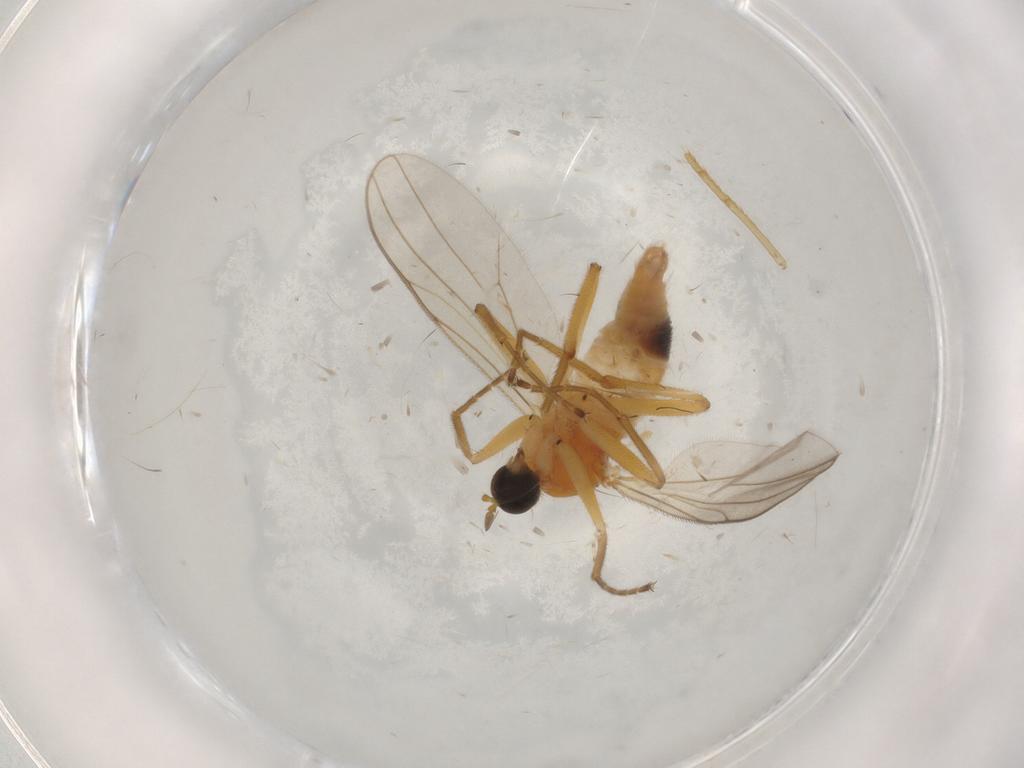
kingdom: Animalia
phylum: Arthropoda
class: Insecta
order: Diptera
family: Hybotidae
